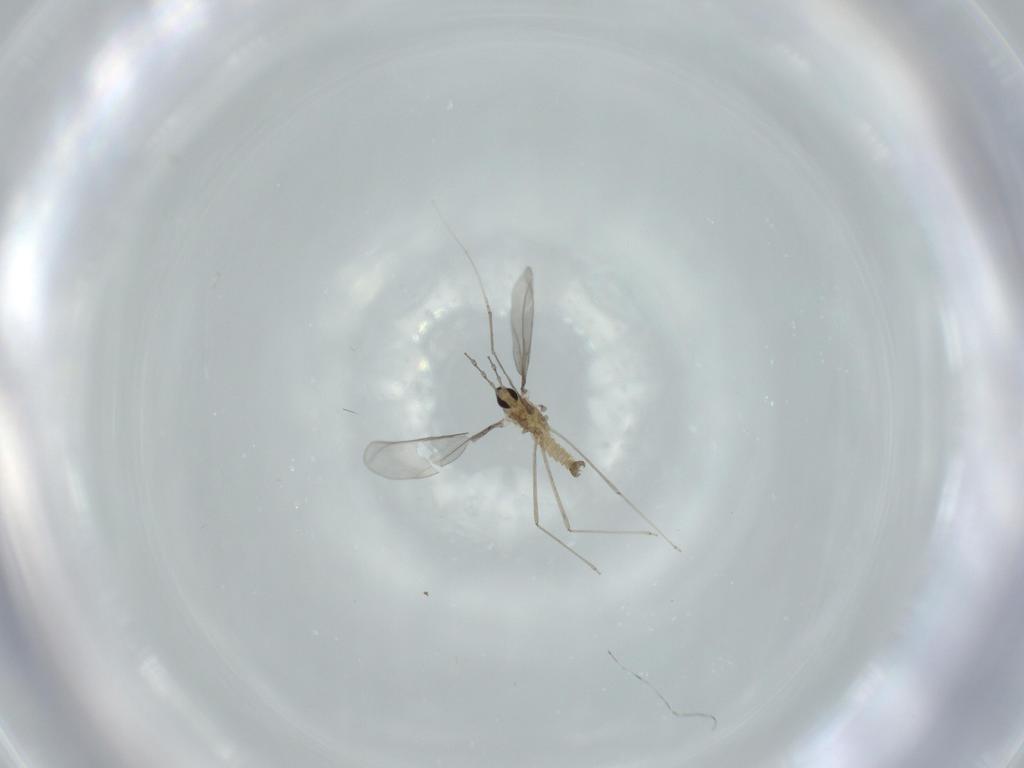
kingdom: Animalia
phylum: Arthropoda
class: Insecta
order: Diptera
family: Cecidomyiidae
